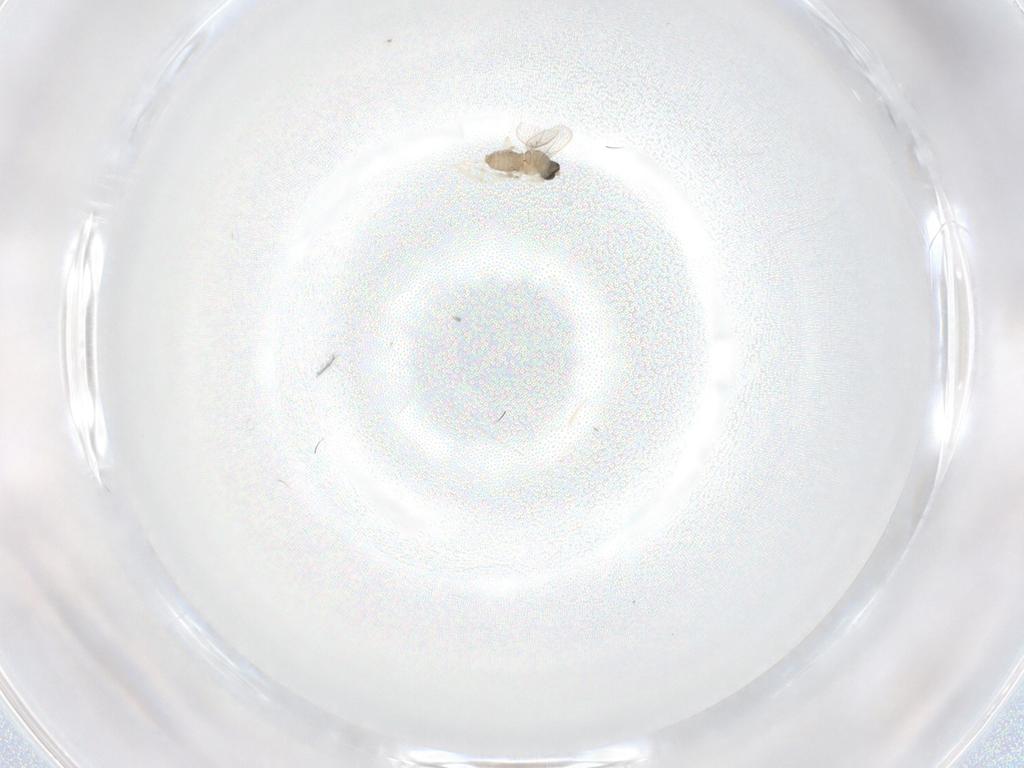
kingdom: Animalia
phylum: Arthropoda
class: Insecta
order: Diptera
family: Cecidomyiidae
